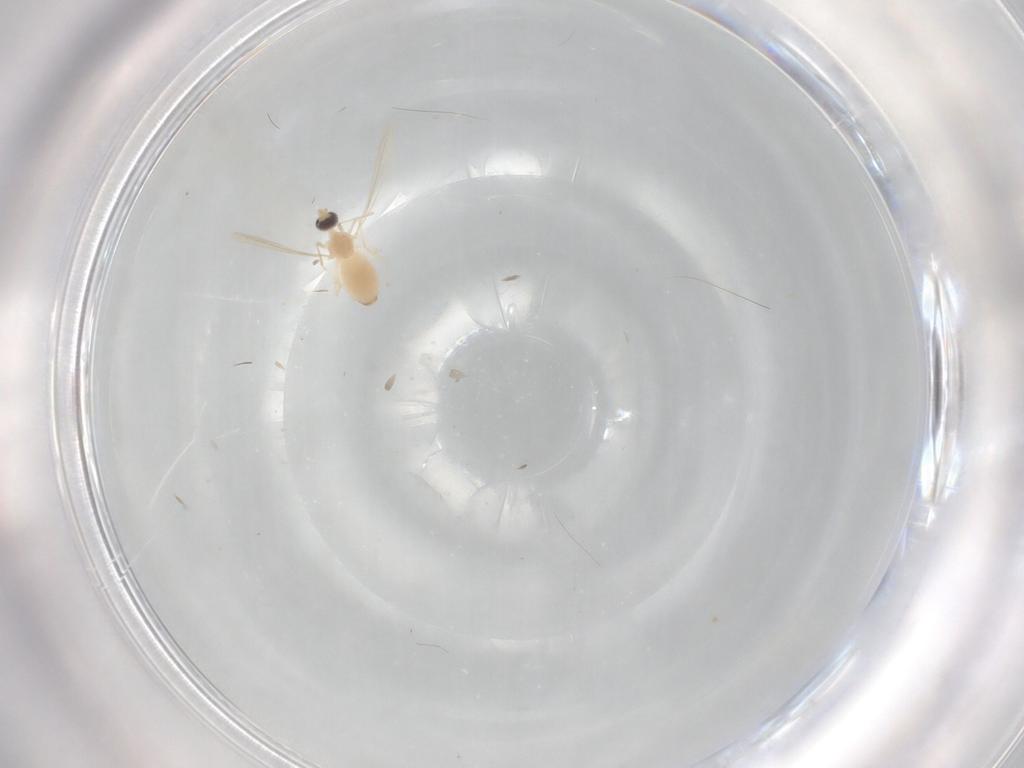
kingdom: Animalia
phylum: Arthropoda
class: Insecta
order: Diptera
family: Cecidomyiidae
